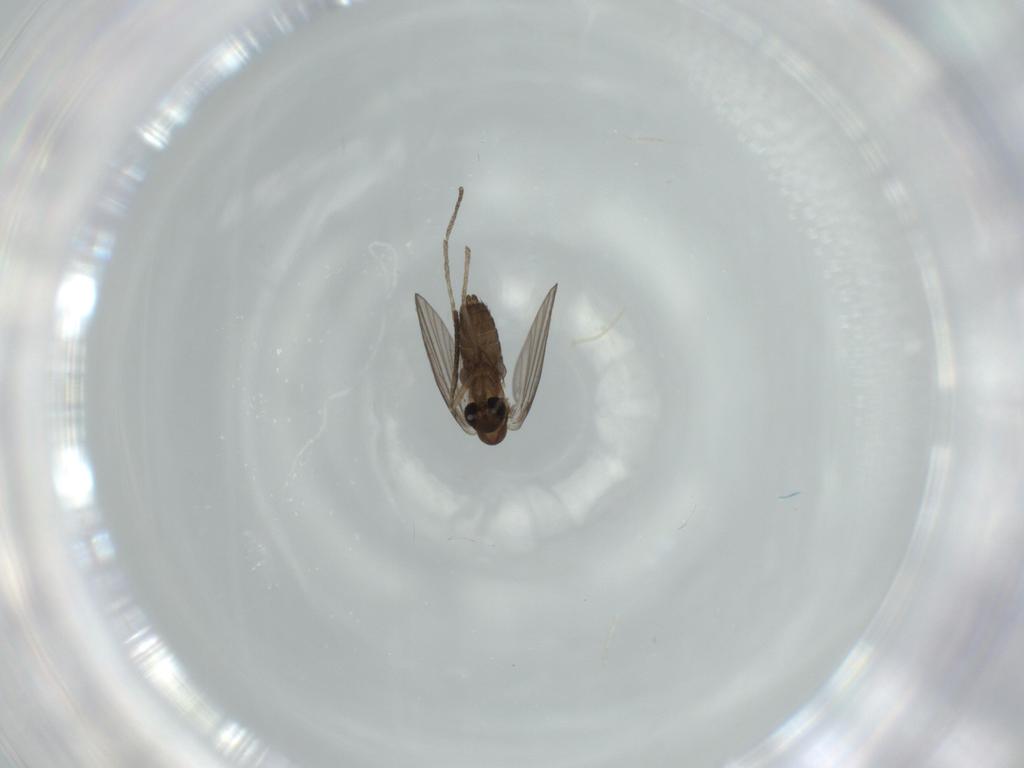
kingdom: Animalia
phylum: Arthropoda
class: Insecta
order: Diptera
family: Psychodidae
